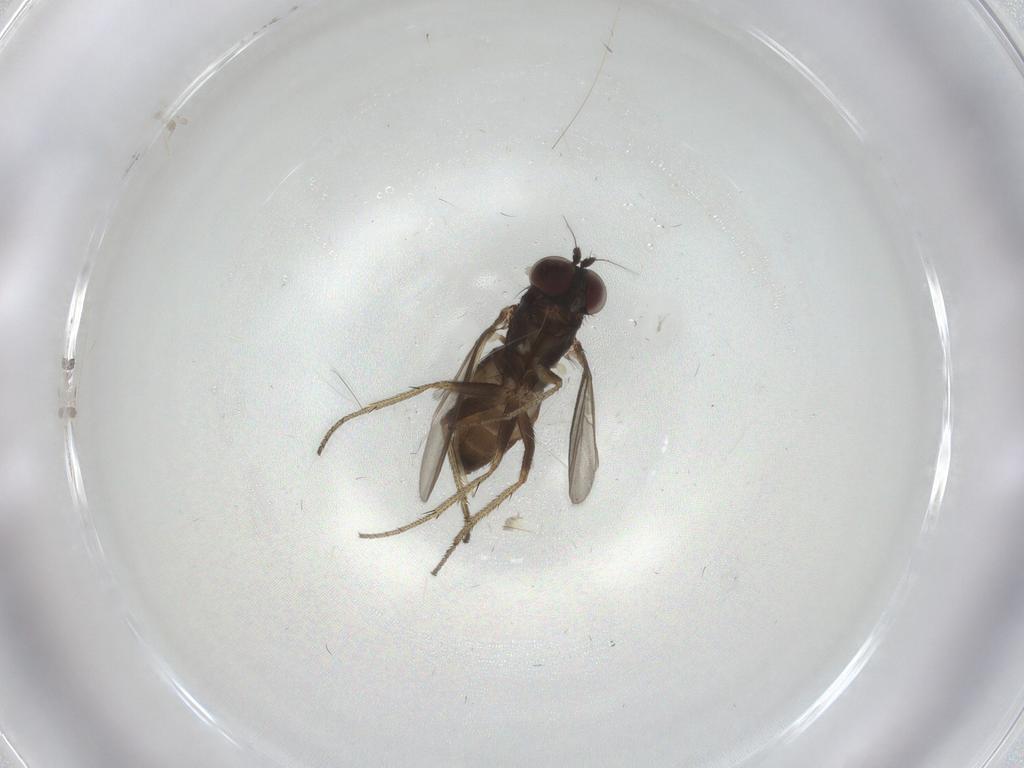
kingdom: Animalia
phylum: Arthropoda
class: Insecta
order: Diptera
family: Dolichopodidae
